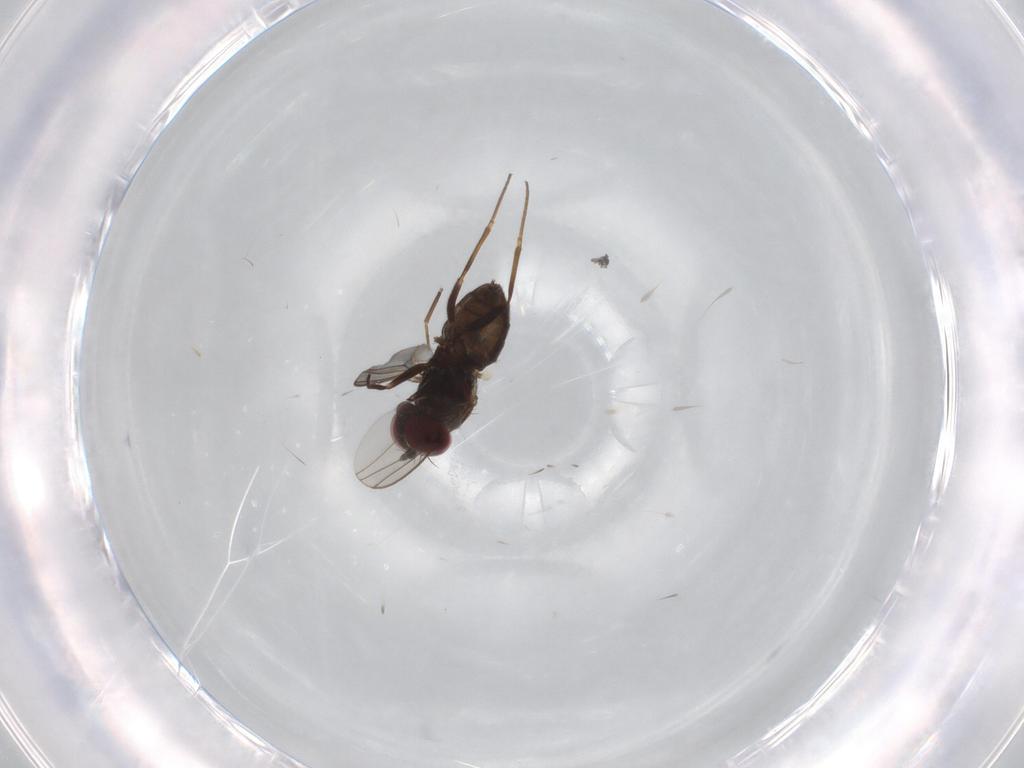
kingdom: Animalia
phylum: Arthropoda
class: Insecta
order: Diptera
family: Dolichopodidae
